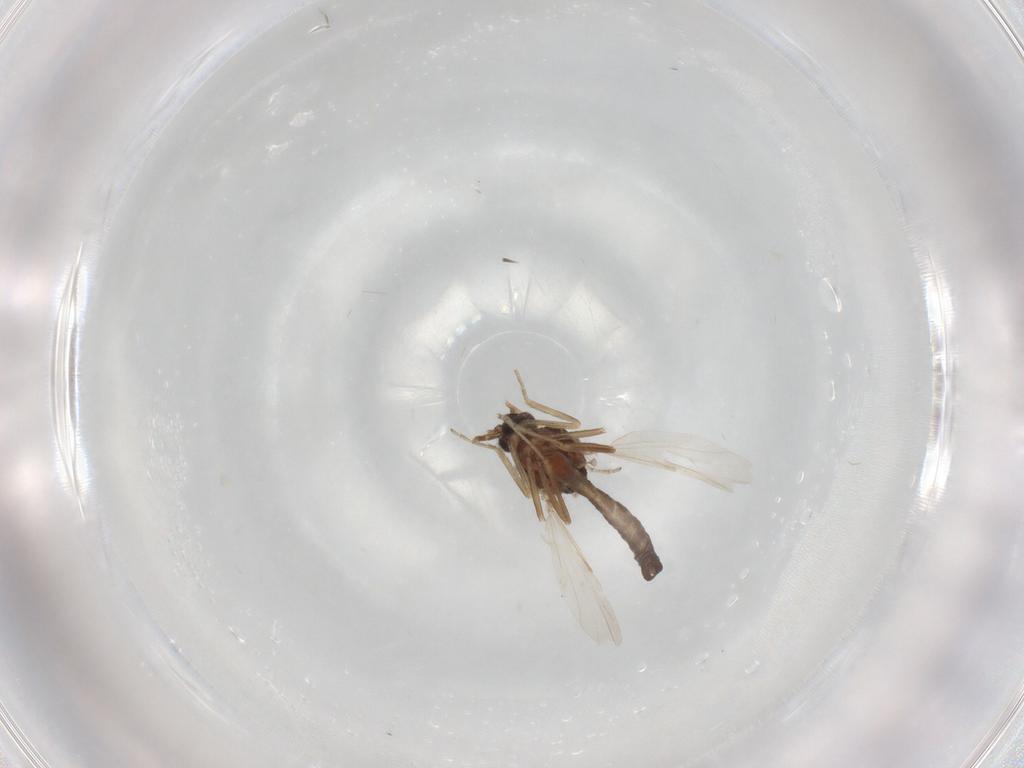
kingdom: Animalia
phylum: Arthropoda
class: Insecta
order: Diptera
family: Ceratopogonidae
